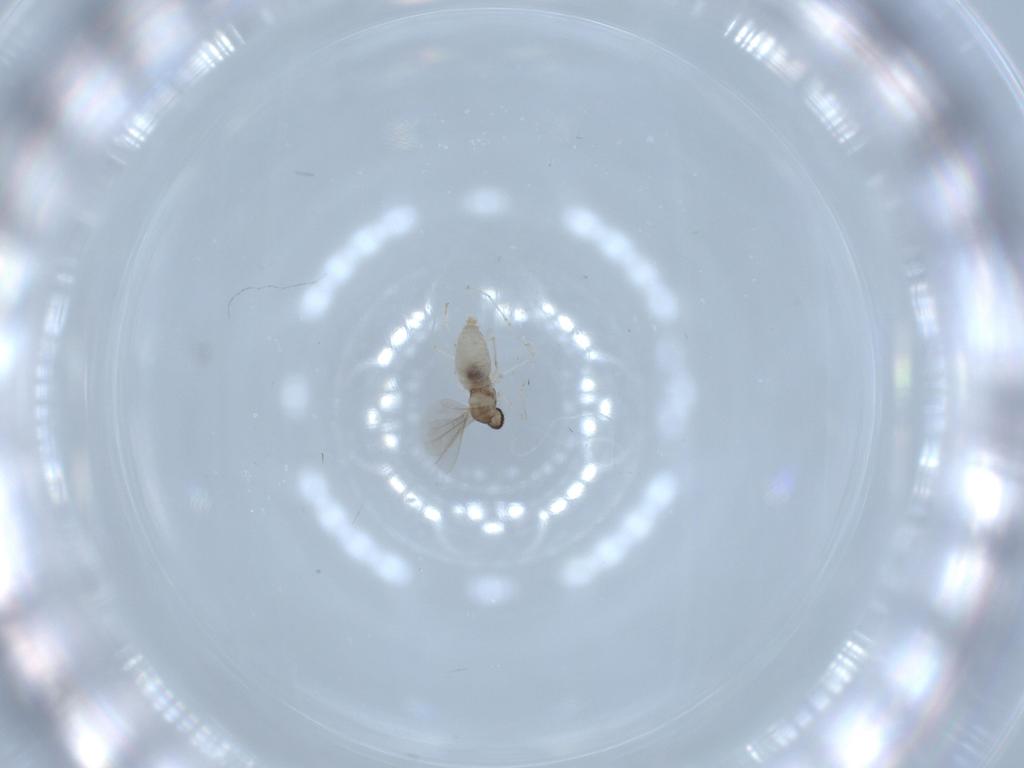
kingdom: Animalia
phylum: Arthropoda
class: Insecta
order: Diptera
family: Cecidomyiidae
